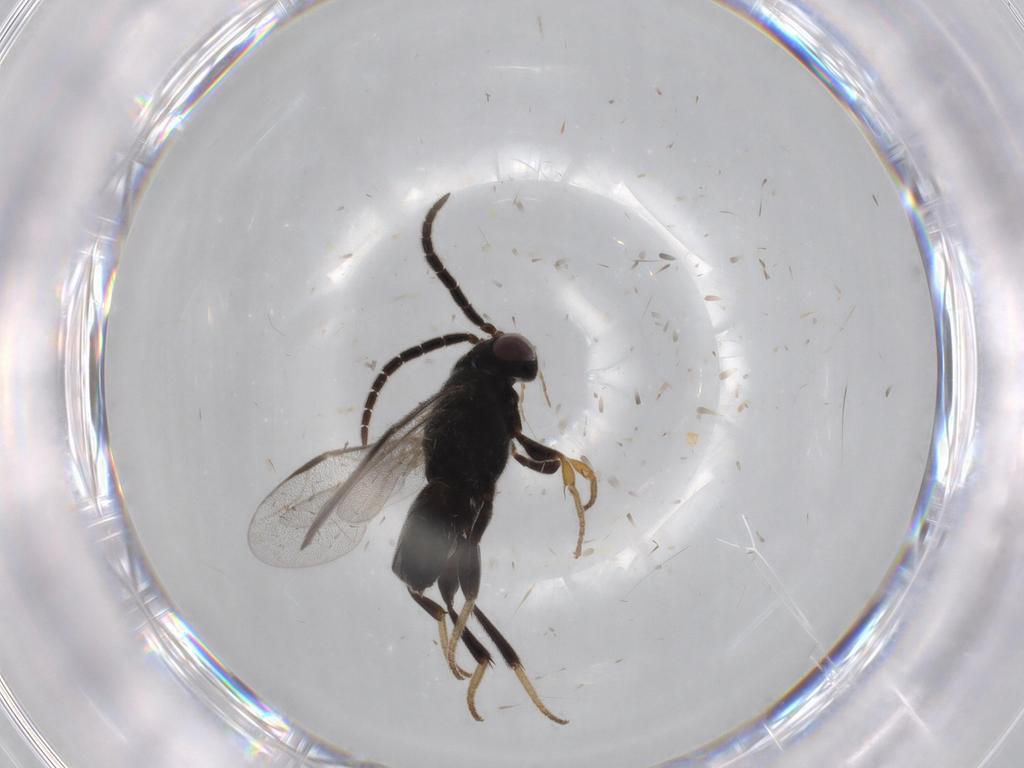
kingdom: Animalia
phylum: Arthropoda
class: Insecta
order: Hymenoptera
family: Dryinidae
